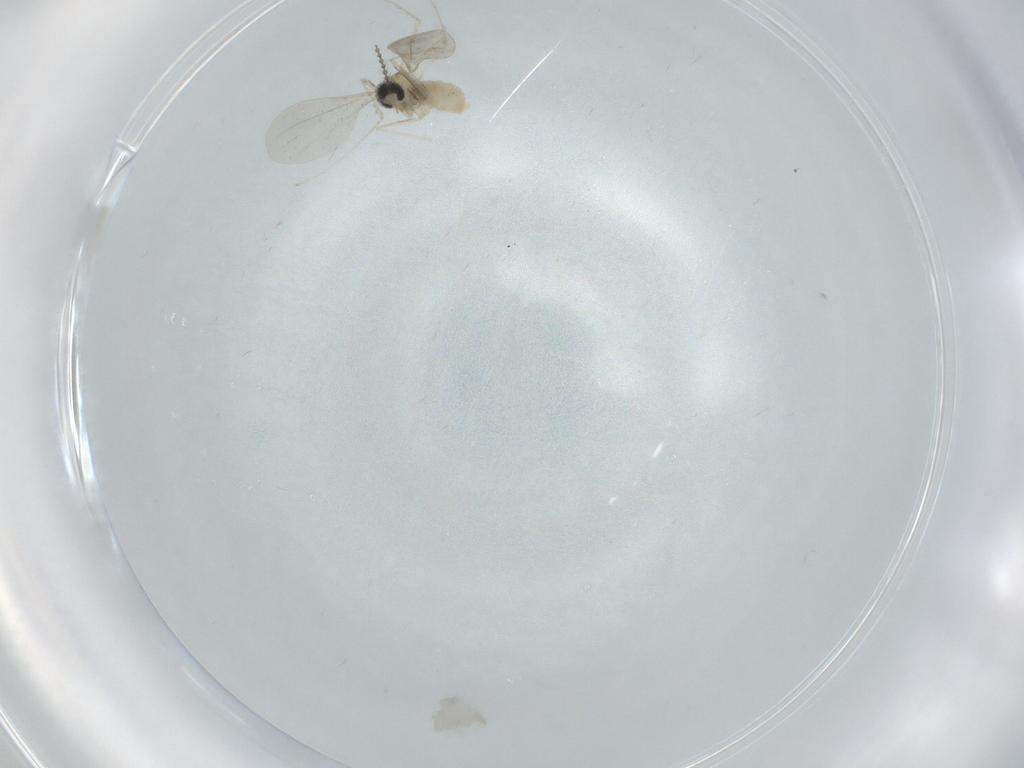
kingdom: Animalia
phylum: Arthropoda
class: Insecta
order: Diptera
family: Cecidomyiidae
